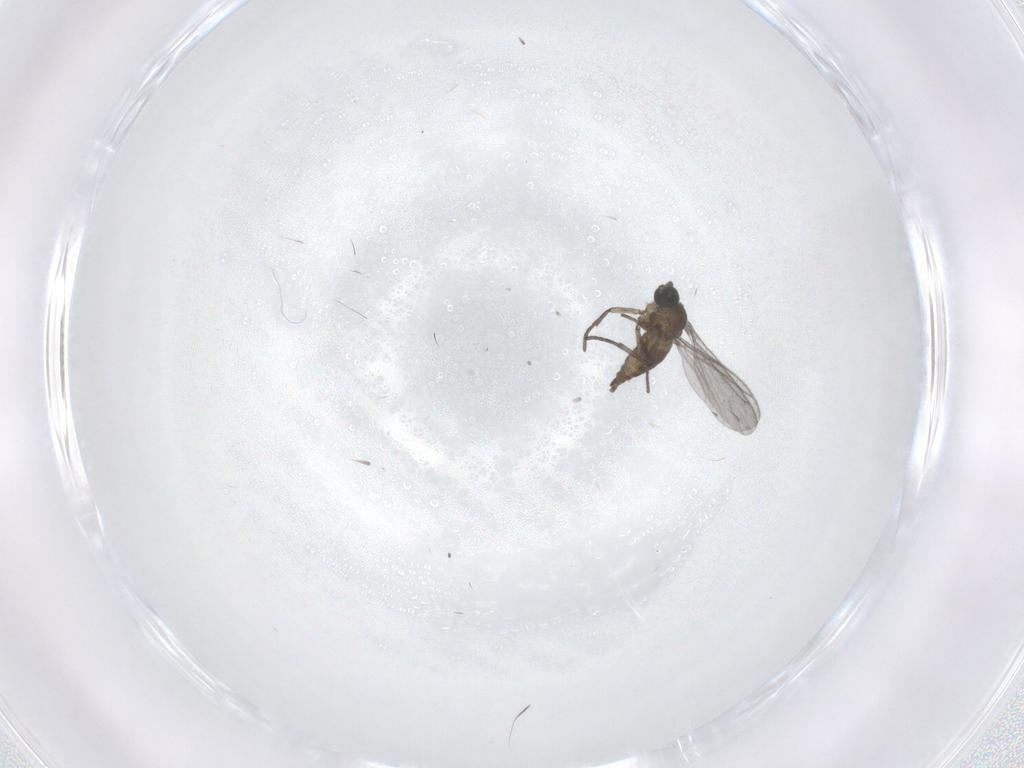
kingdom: Animalia
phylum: Arthropoda
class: Insecta
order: Diptera
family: Sciaridae
